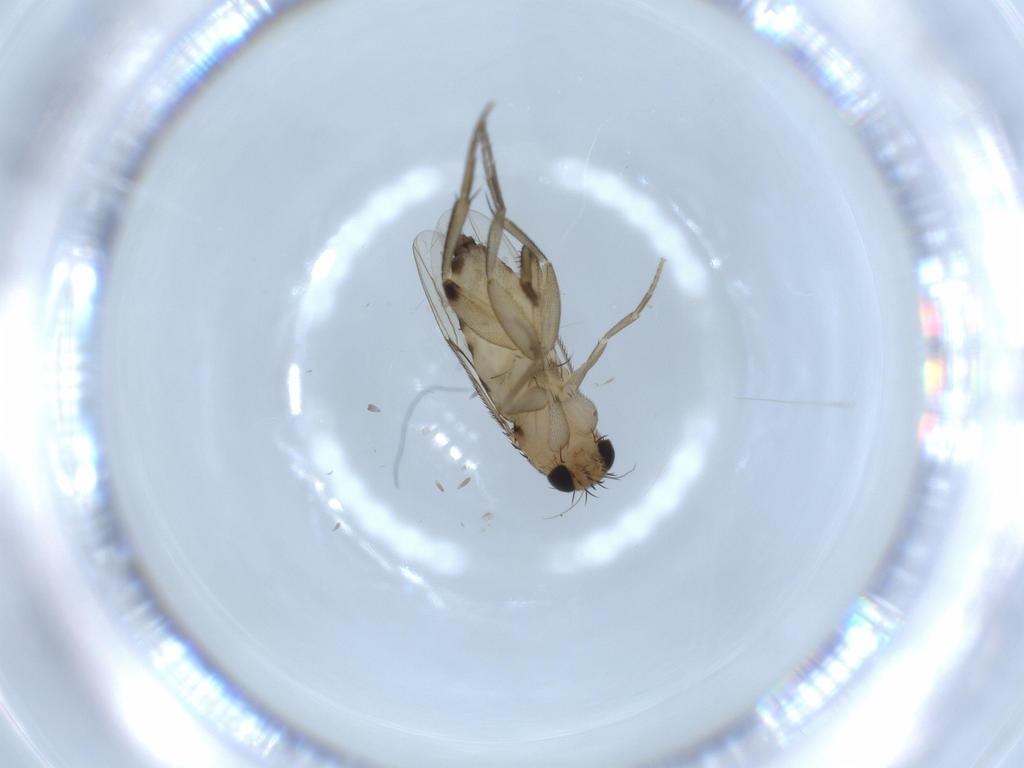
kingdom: Animalia
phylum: Arthropoda
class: Insecta
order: Diptera
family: Phoridae
